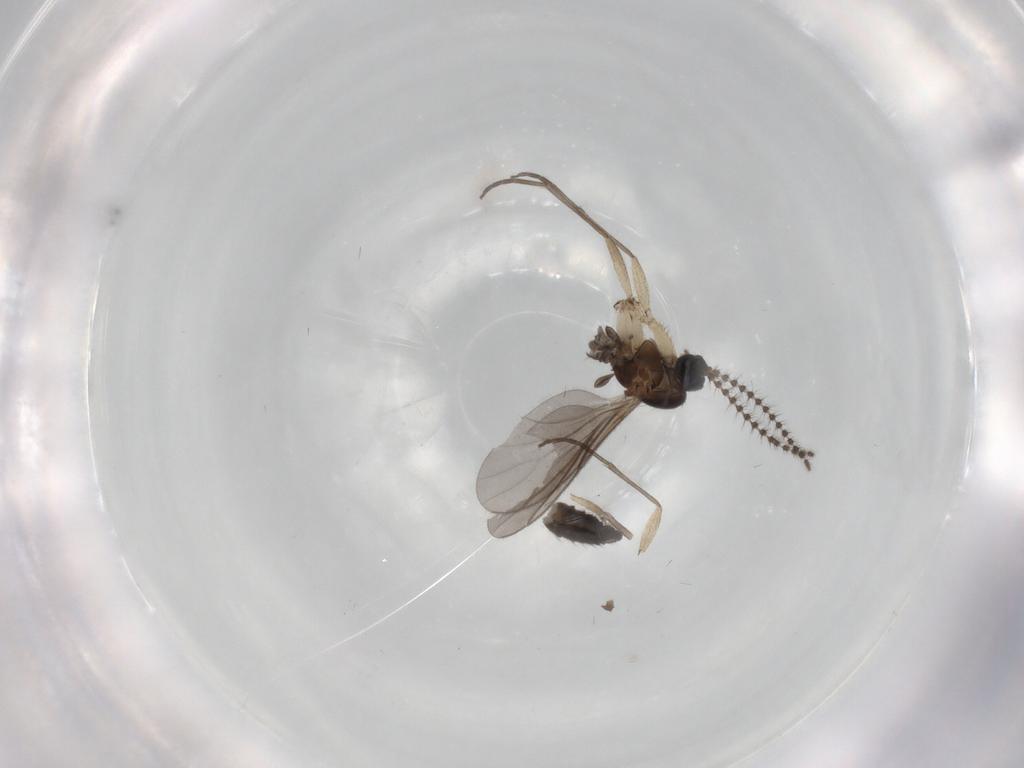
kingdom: Animalia
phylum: Arthropoda
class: Insecta
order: Diptera
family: Sciaridae
